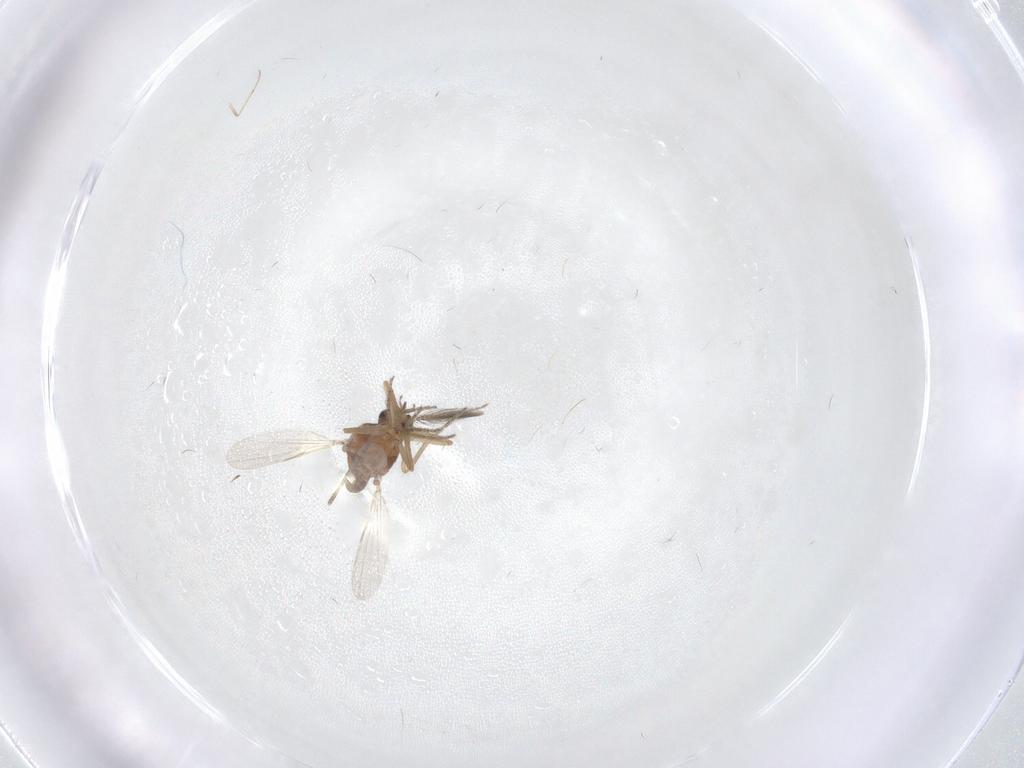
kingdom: Animalia
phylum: Arthropoda
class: Insecta
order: Diptera
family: Ceratopogonidae
